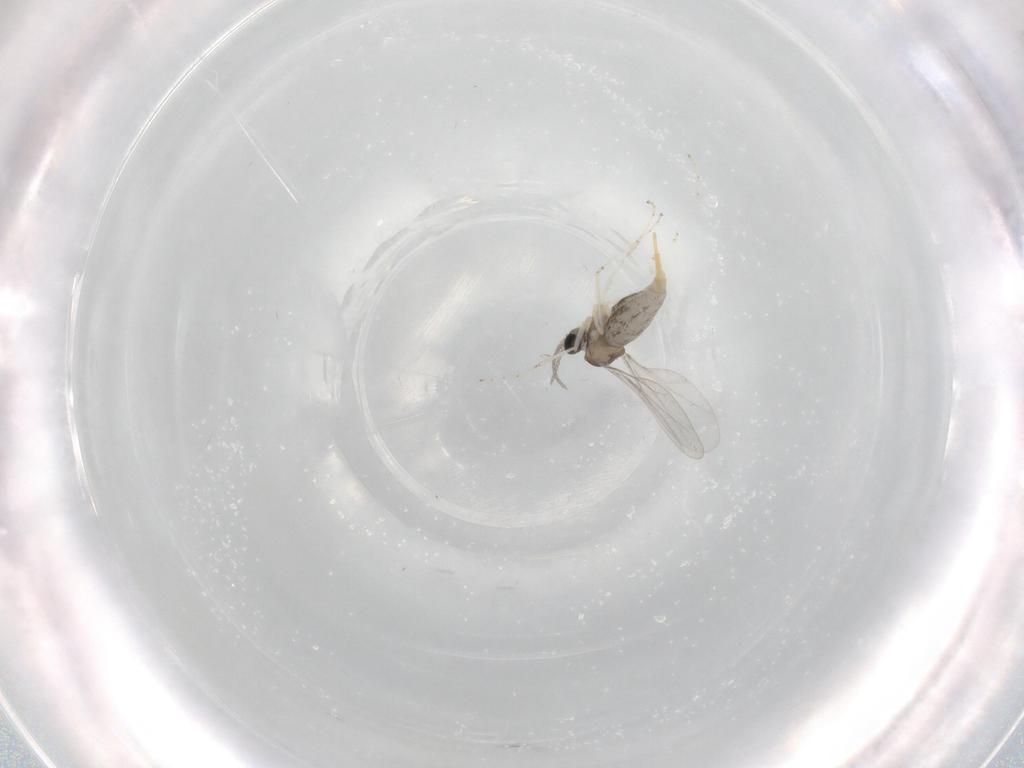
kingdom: Animalia
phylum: Arthropoda
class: Insecta
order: Diptera
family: Cecidomyiidae
